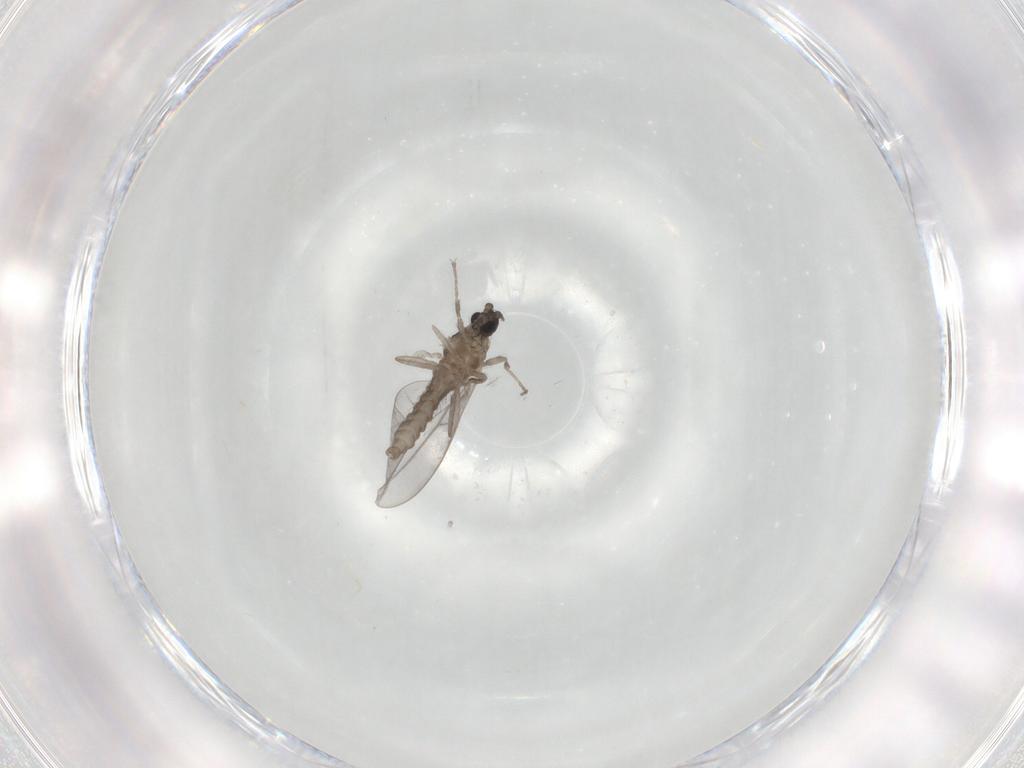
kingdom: Animalia
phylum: Arthropoda
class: Insecta
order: Diptera
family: Cecidomyiidae
